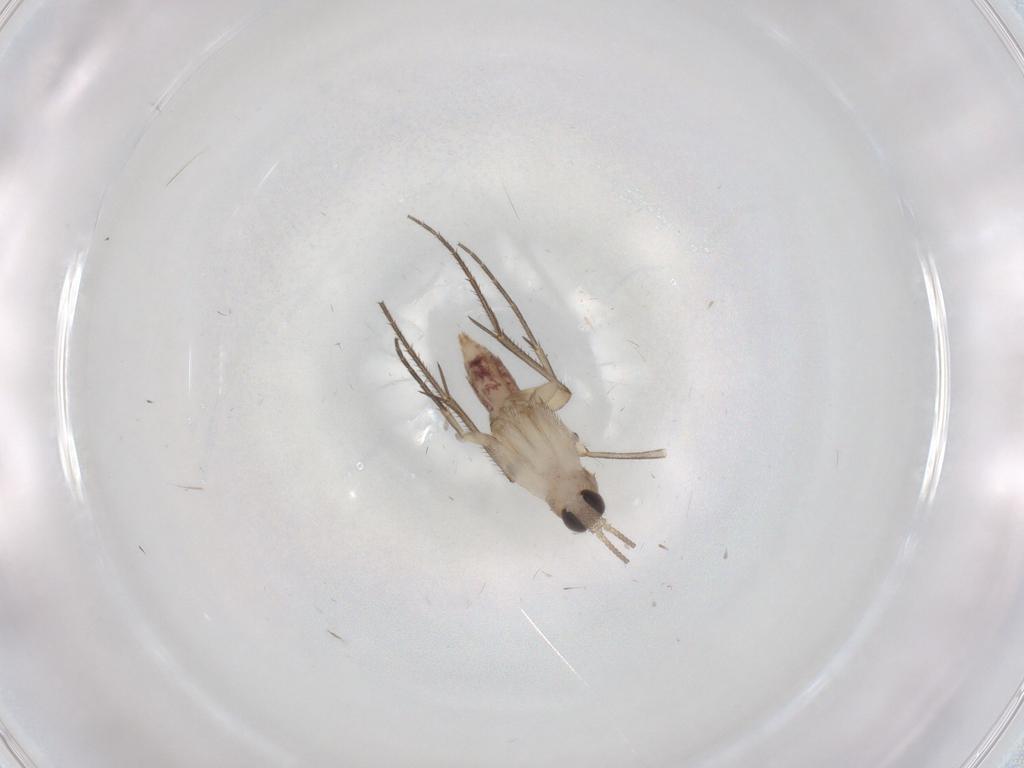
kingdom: Animalia
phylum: Arthropoda
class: Insecta
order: Diptera
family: Mycetophilidae
